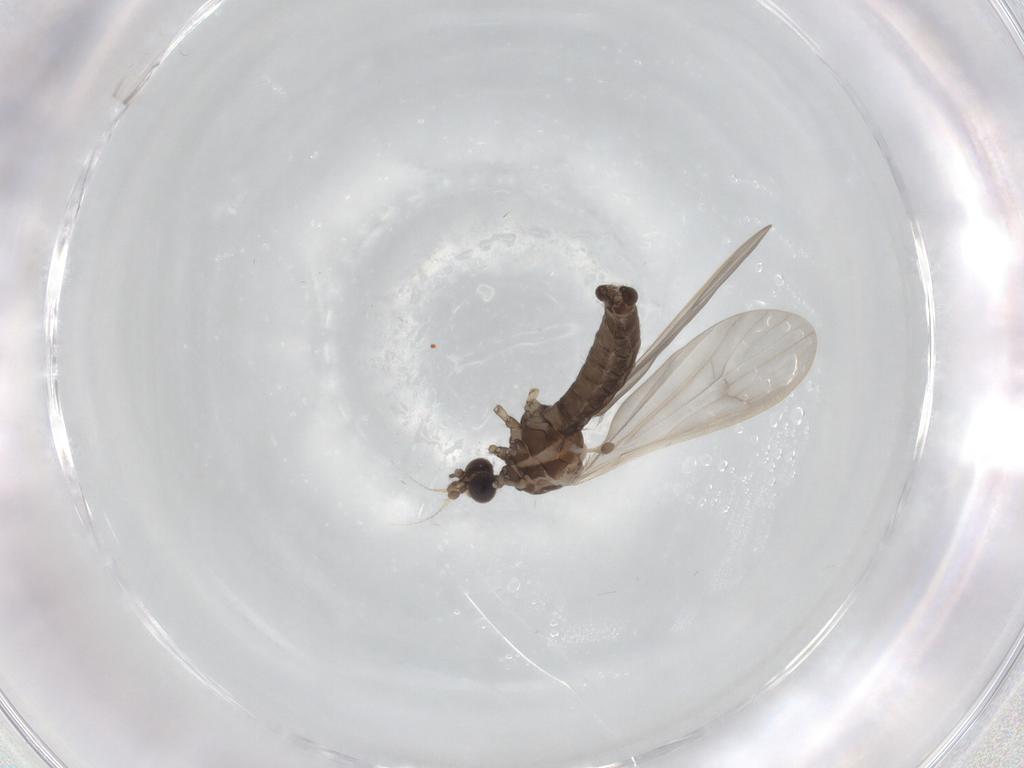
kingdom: Animalia
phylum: Arthropoda
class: Insecta
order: Diptera
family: Limoniidae
